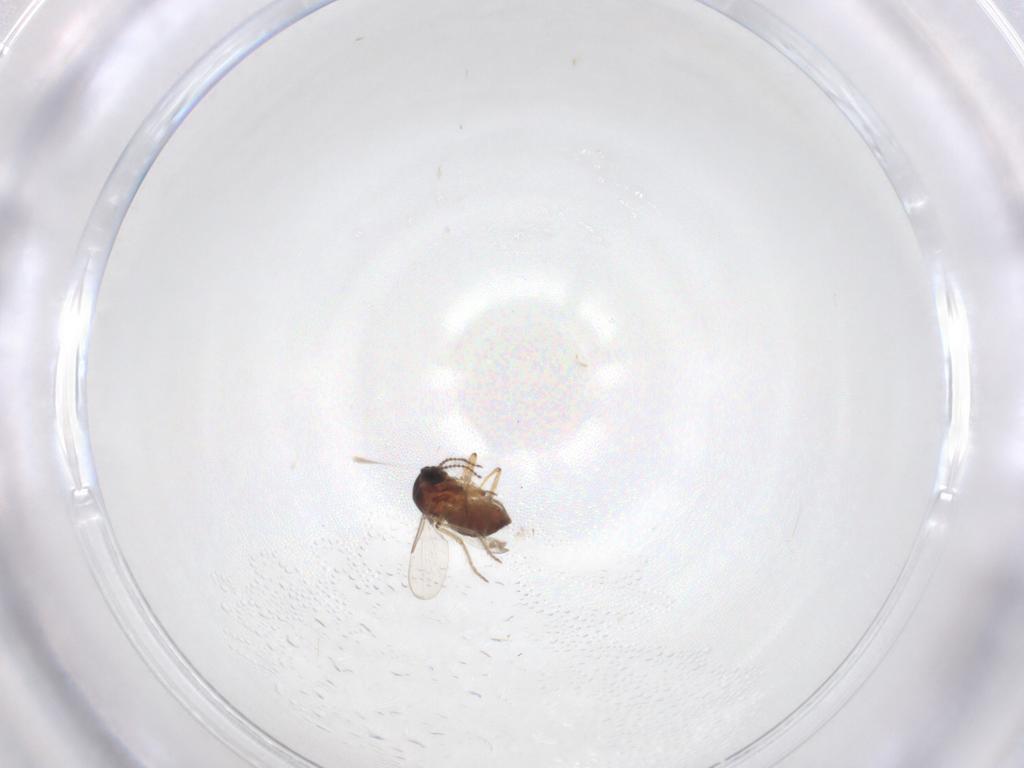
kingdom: Animalia
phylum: Arthropoda
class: Insecta
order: Diptera
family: Ceratopogonidae
